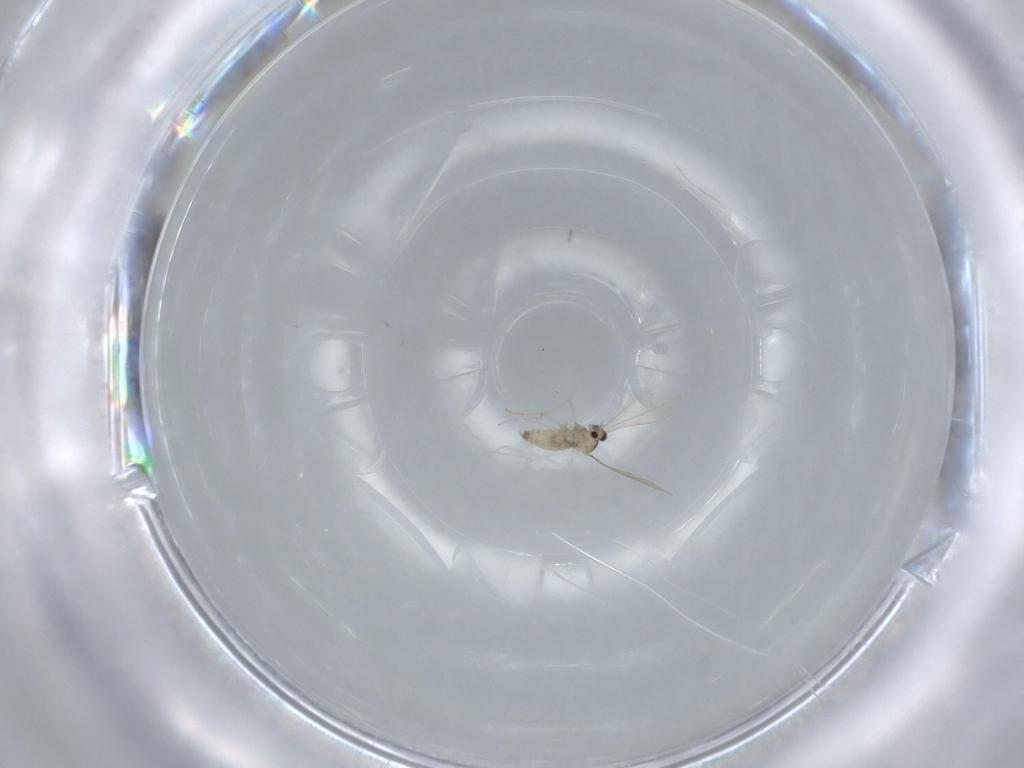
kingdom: Animalia
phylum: Arthropoda
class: Insecta
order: Diptera
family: Cecidomyiidae
